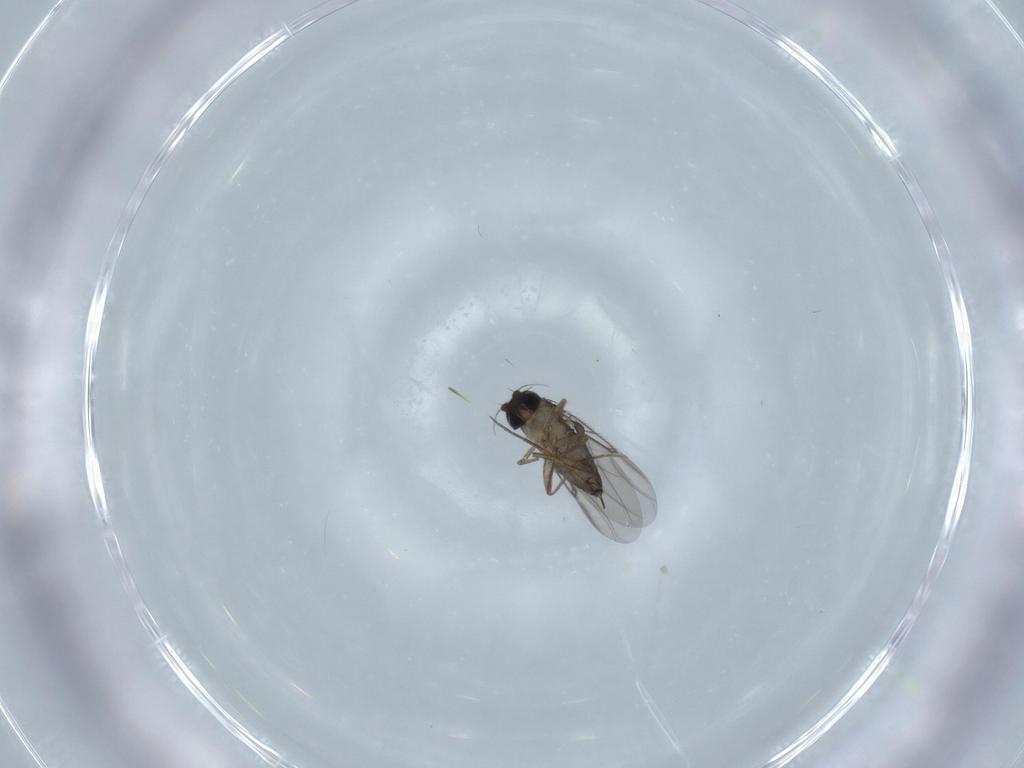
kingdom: Animalia
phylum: Arthropoda
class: Insecta
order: Diptera
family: Phoridae
